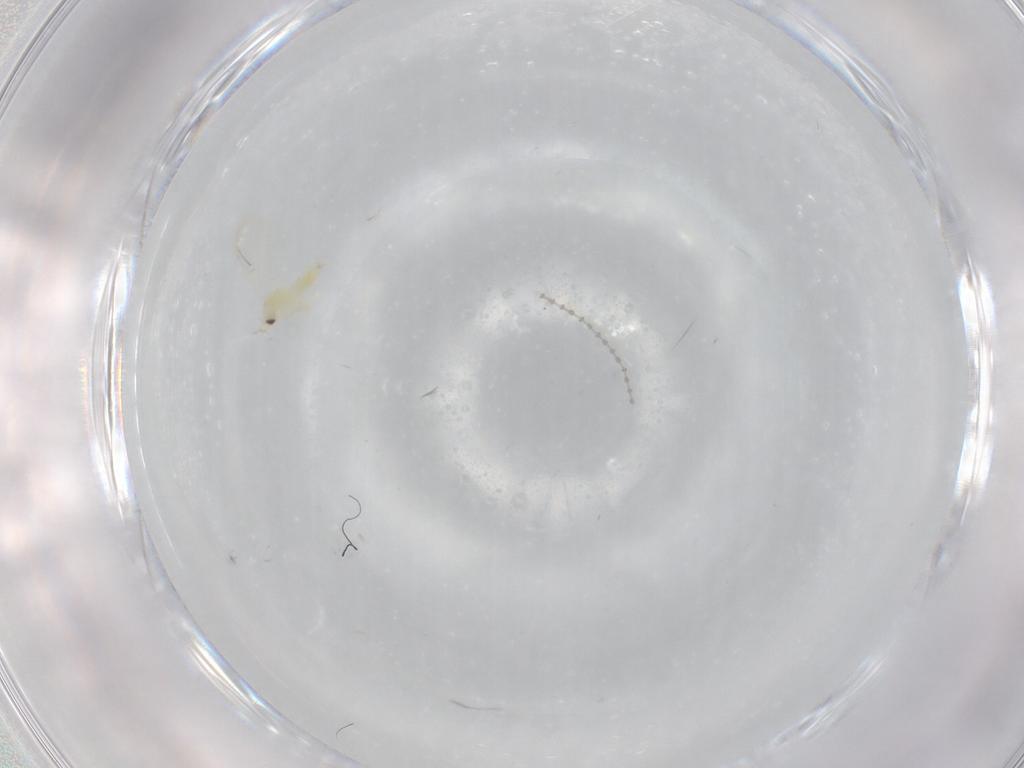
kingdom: Animalia
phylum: Arthropoda
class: Insecta
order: Diptera
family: Cecidomyiidae
